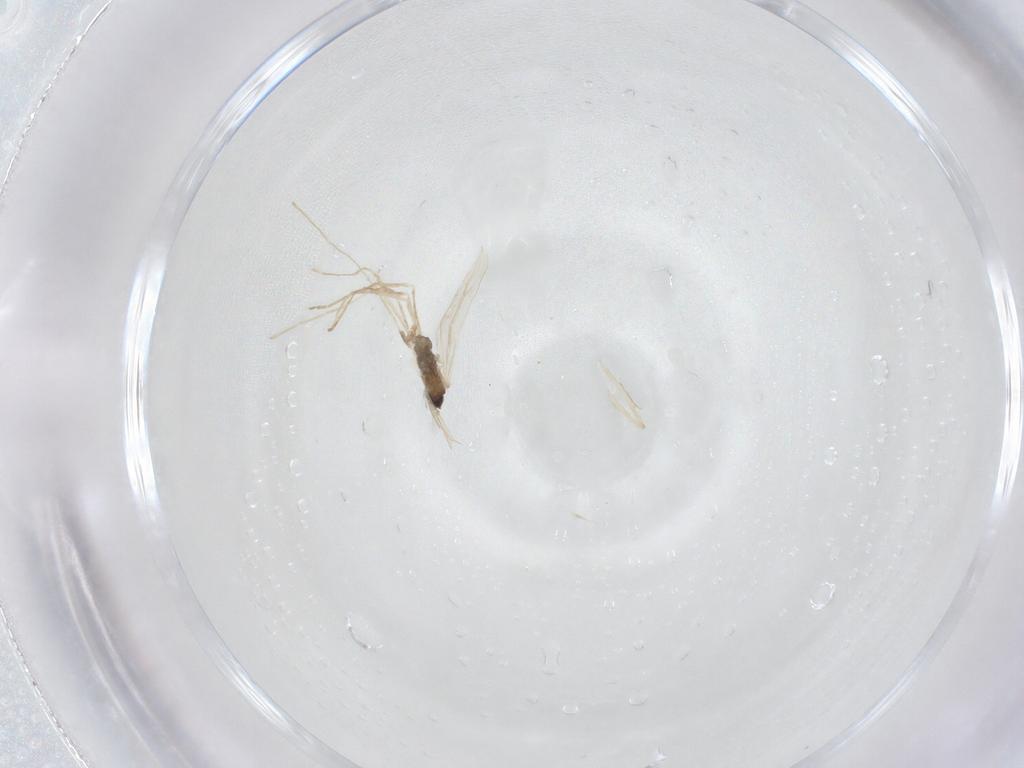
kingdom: Animalia
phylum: Arthropoda
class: Insecta
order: Diptera
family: Cecidomyiidae
